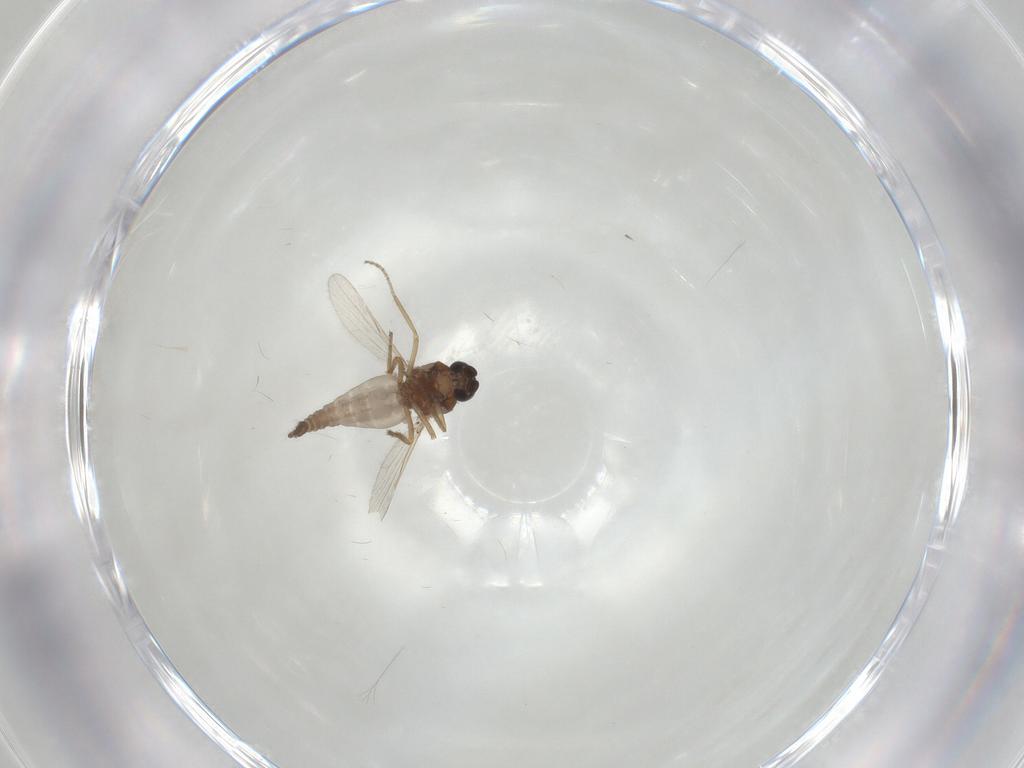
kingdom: Animalia
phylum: Arthropoda
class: Insecta
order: Diptera
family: Ceratopogonidae
